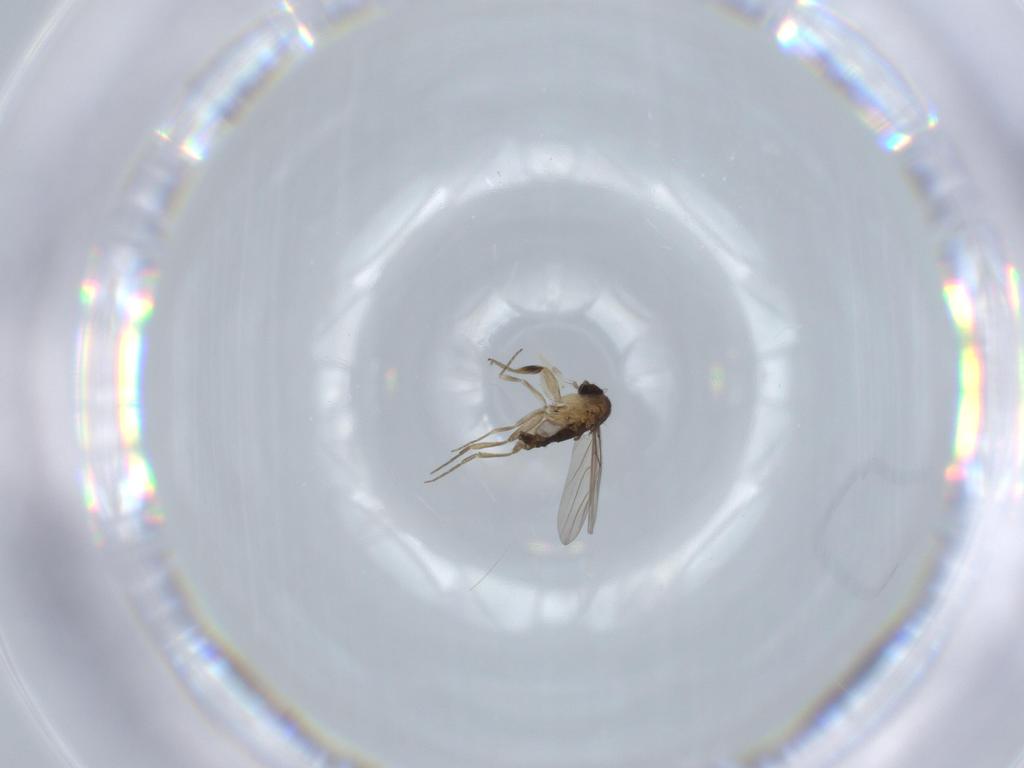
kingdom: Animalia
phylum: Arthropoda
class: Insecta
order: Diptera
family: Phoridae
